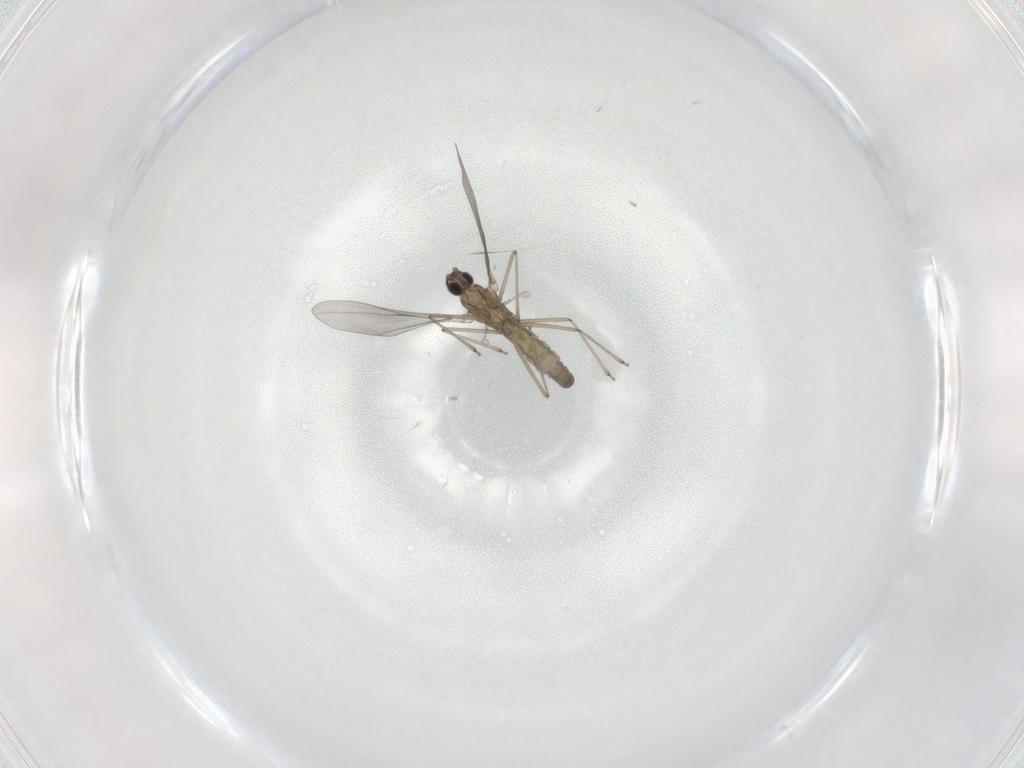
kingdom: Animalia
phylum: Arthropoda
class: Insecta
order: Diptera
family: Cecidomyiidae
